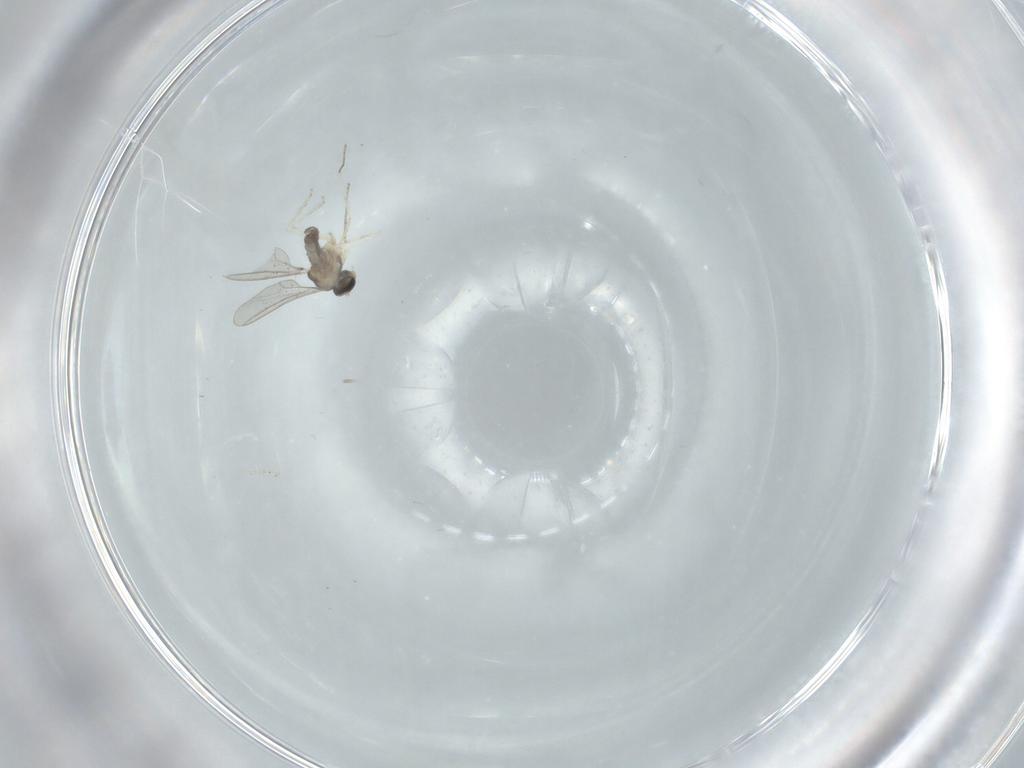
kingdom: Animalia
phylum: Arthropoda
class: Insecta
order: Diptera
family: Cecidomyiidae
